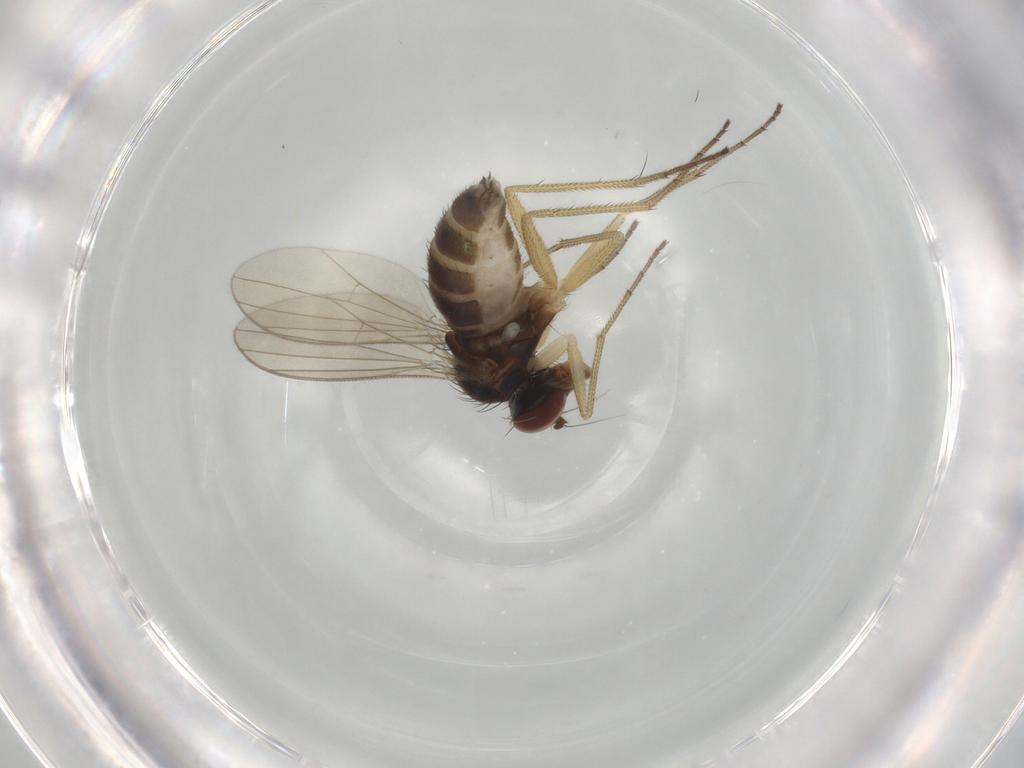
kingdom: Animalia
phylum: Arthropoda
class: Insecta
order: Diptera
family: Dolichopodidae
